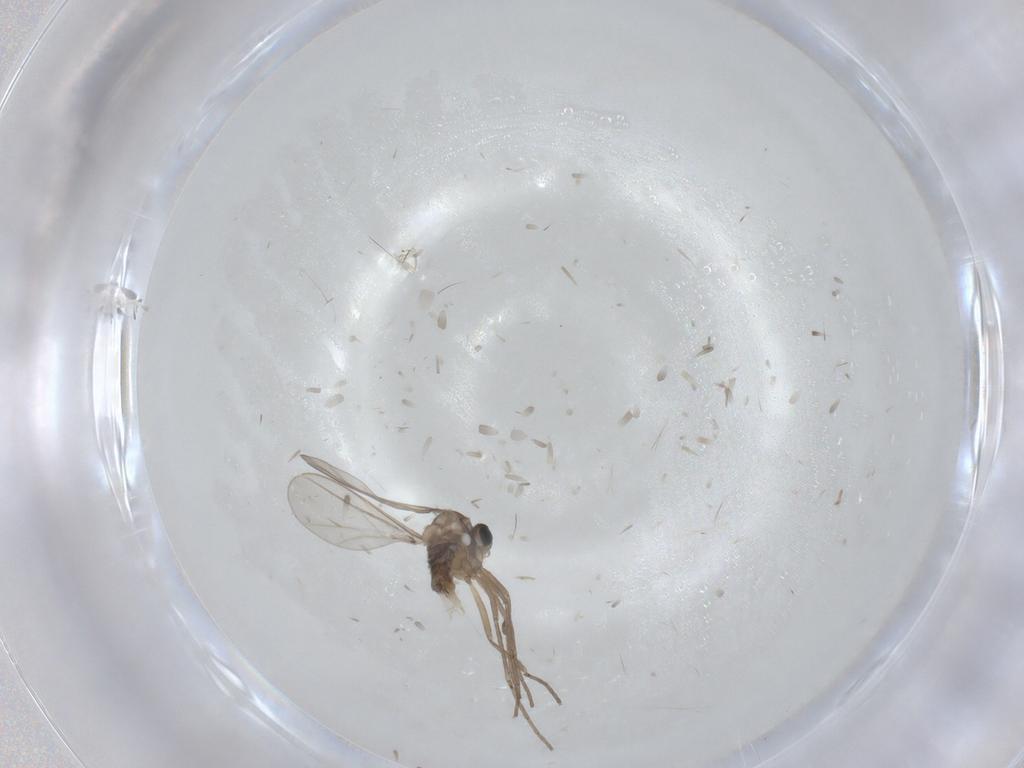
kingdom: Animalia
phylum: Arthropoda
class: Insecta
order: Diptera
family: Cecidomyiidae
